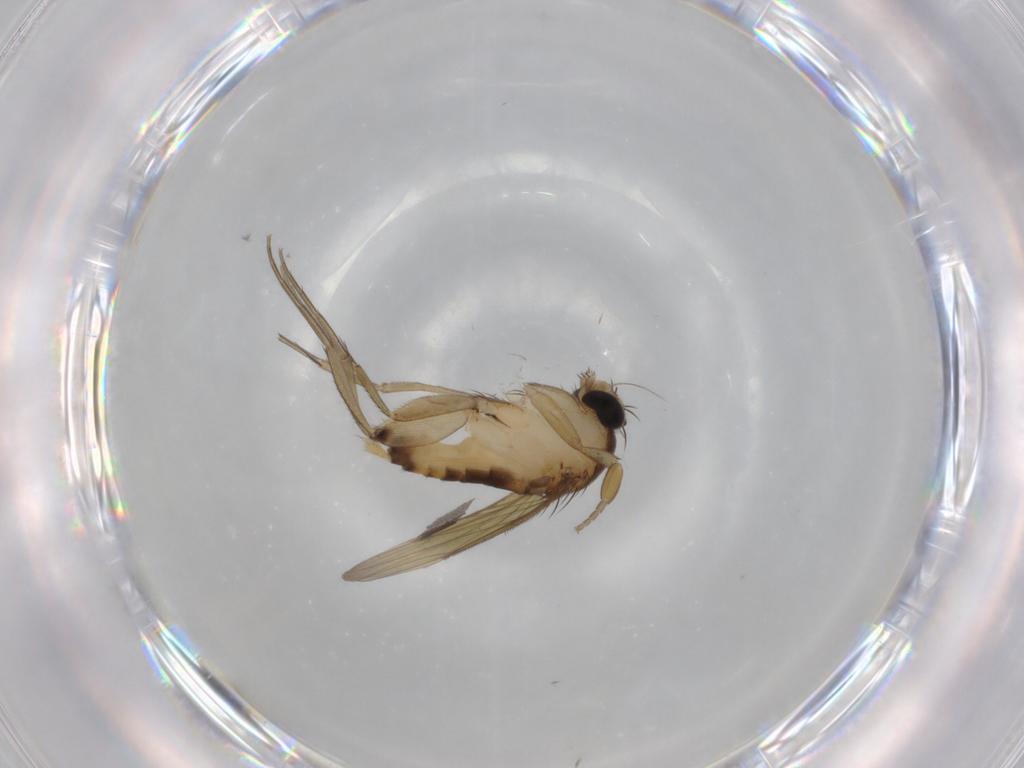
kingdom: Animalia
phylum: Arthropoda
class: Insecta
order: Diptera
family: Phoridae
